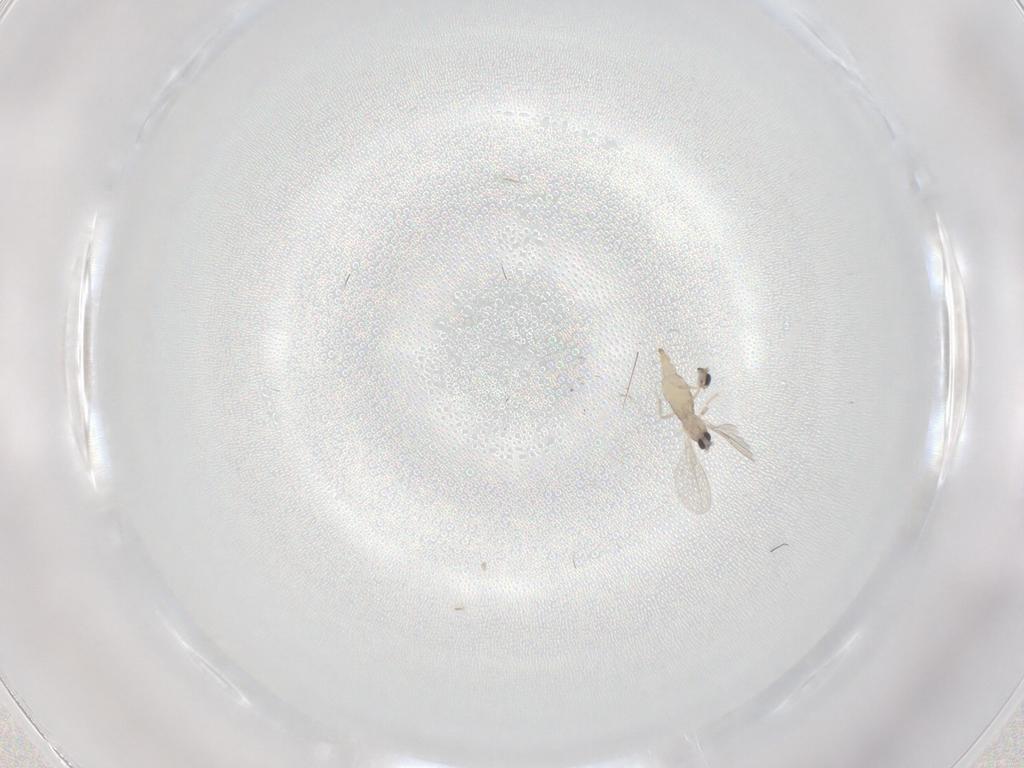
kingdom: Animalia
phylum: Arthropoda
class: Insecta
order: Diptera
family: Cecidomyiidae
